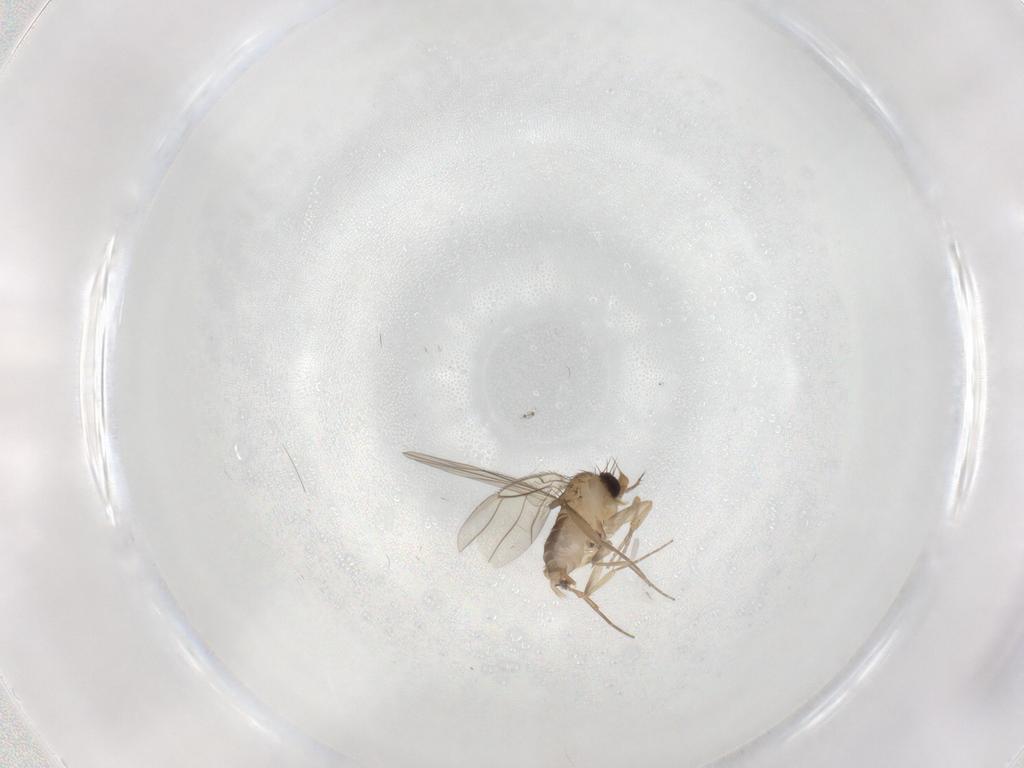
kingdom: Animalia
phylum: Arthropoda
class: Insecta
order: Diptera
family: Phoridae
